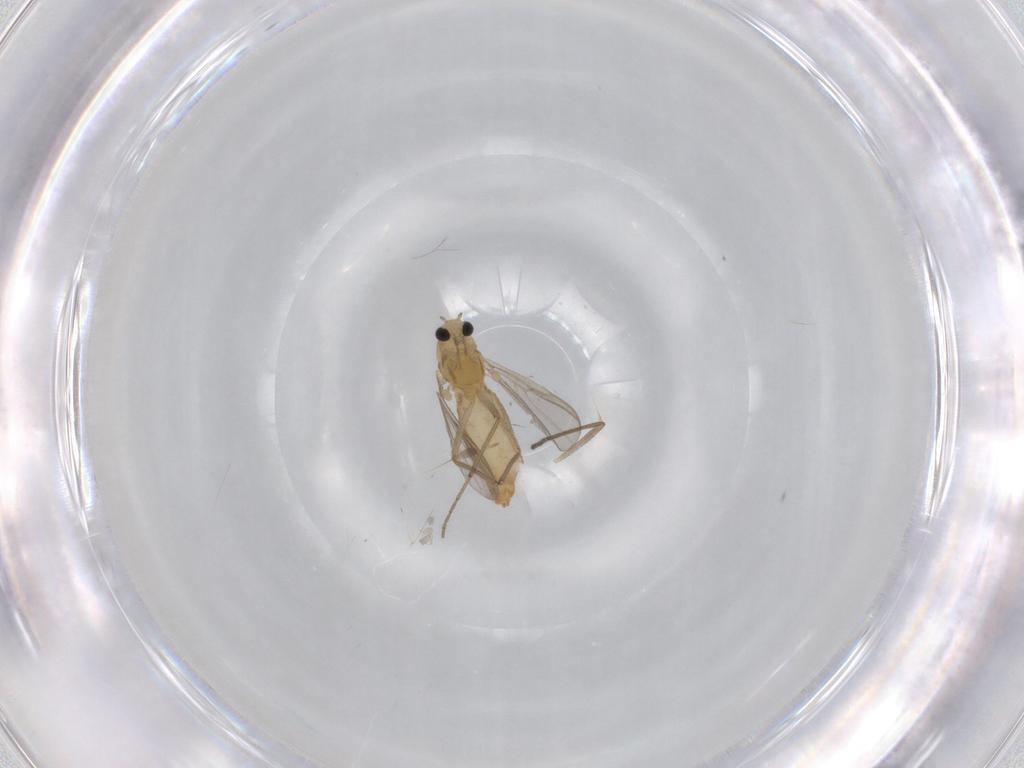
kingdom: Animalia
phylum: Arthropoda
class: Insecta
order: Diptera
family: Chironomidae
